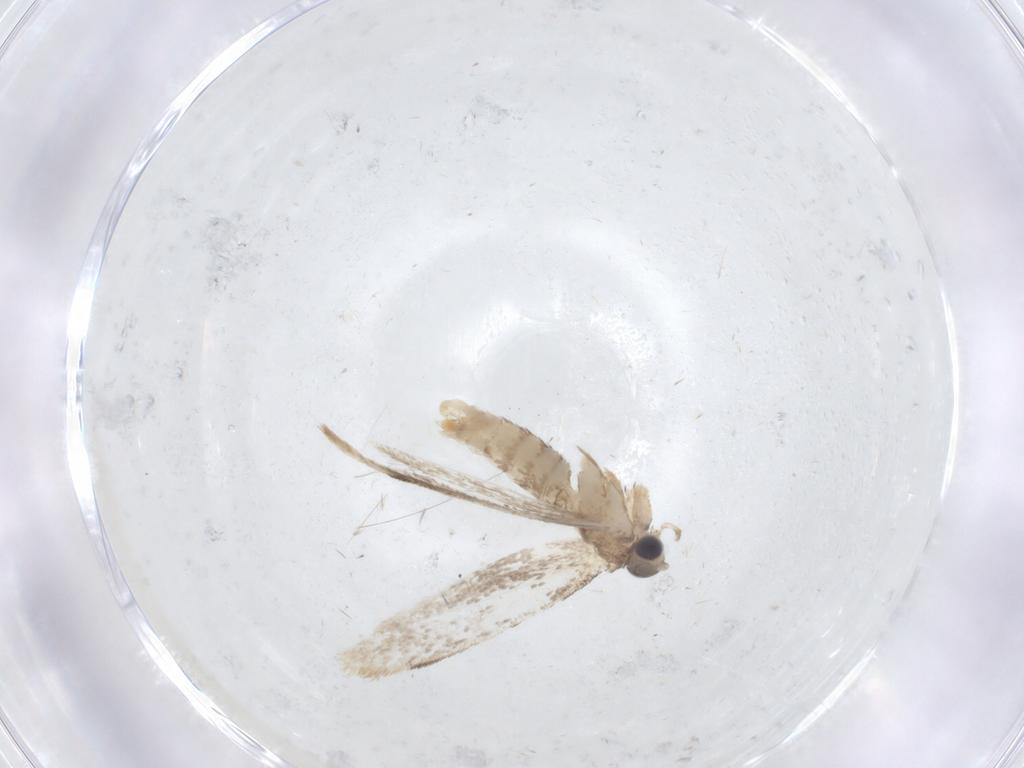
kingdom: Animalia
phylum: Arthropoda
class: Insecta
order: Lepidoptera
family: Dryadaulidae
